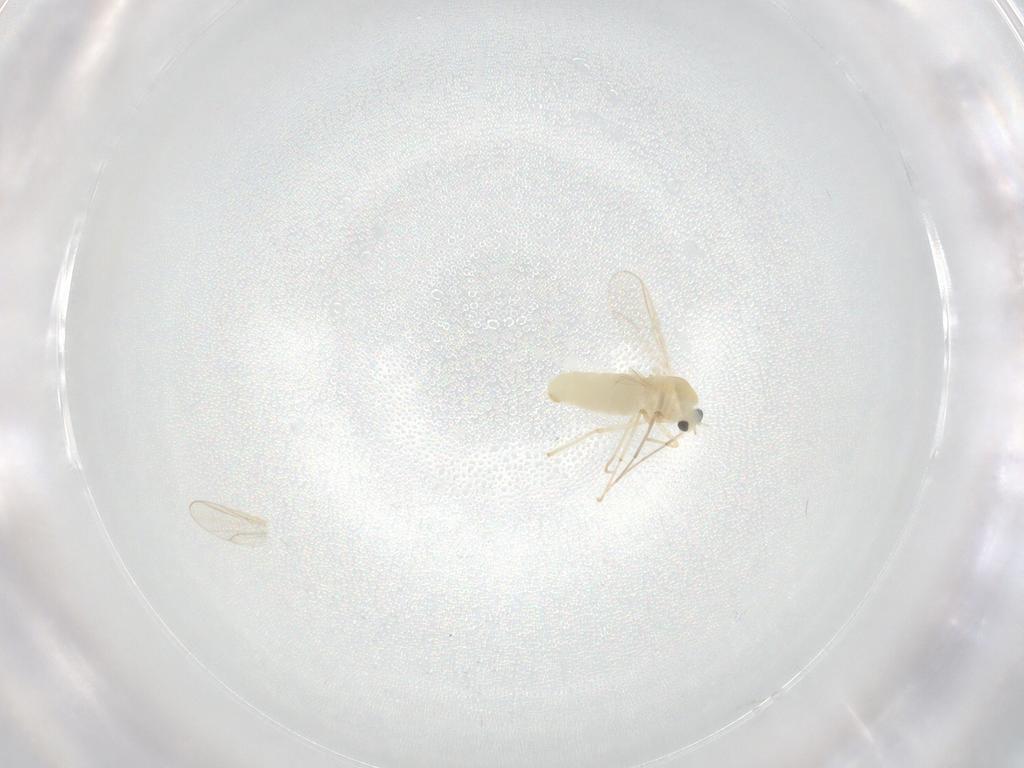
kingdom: Animalia
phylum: Arthropoda
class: Insecta
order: Diptera
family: Chironomidae
